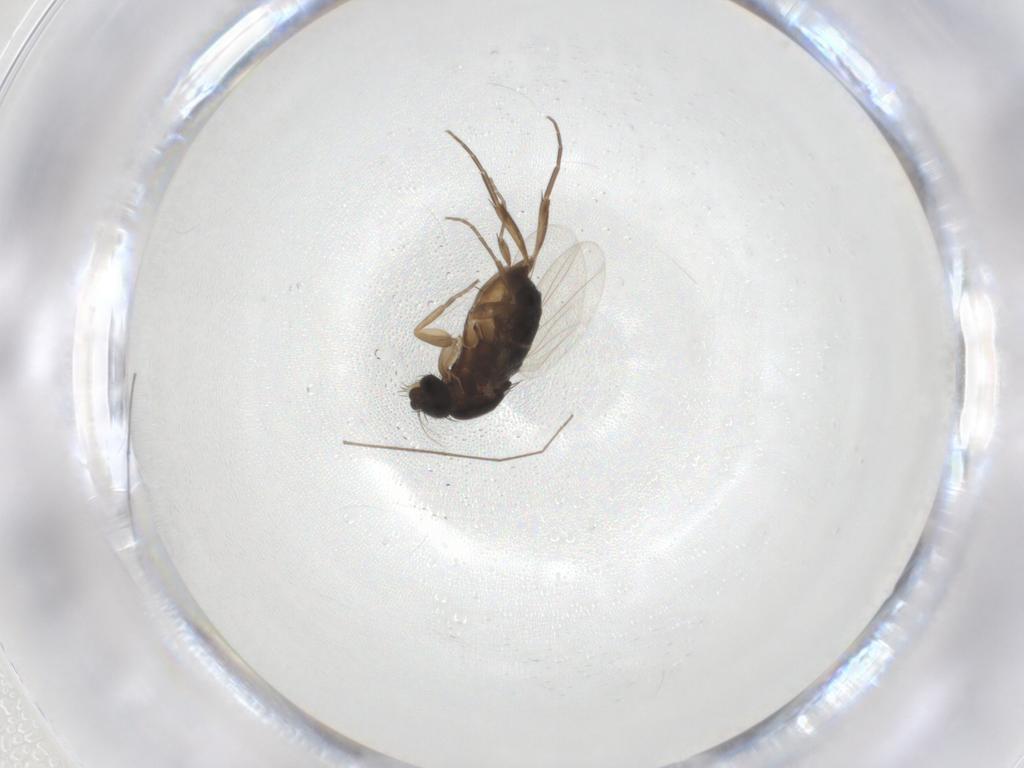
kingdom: Animalia
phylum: Arthropoda
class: Insecta
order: Diptera
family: Phoridae
